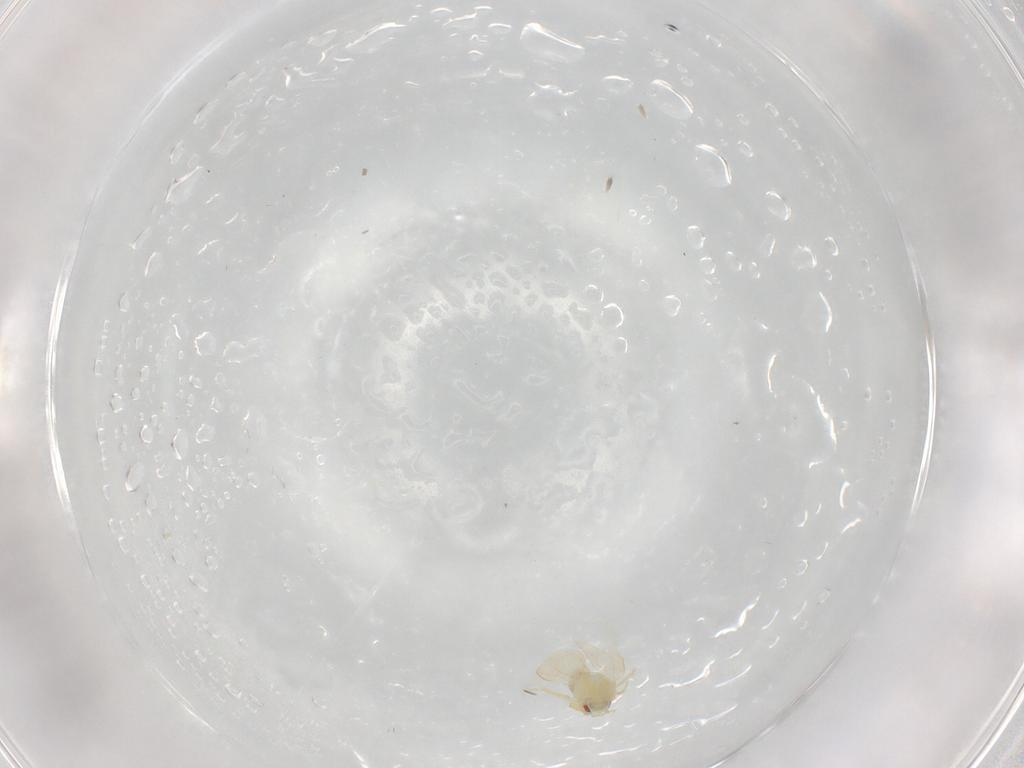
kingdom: Animalia
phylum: Arthropoda
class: Insecta
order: Hemiptera
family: Aleyrodidae
